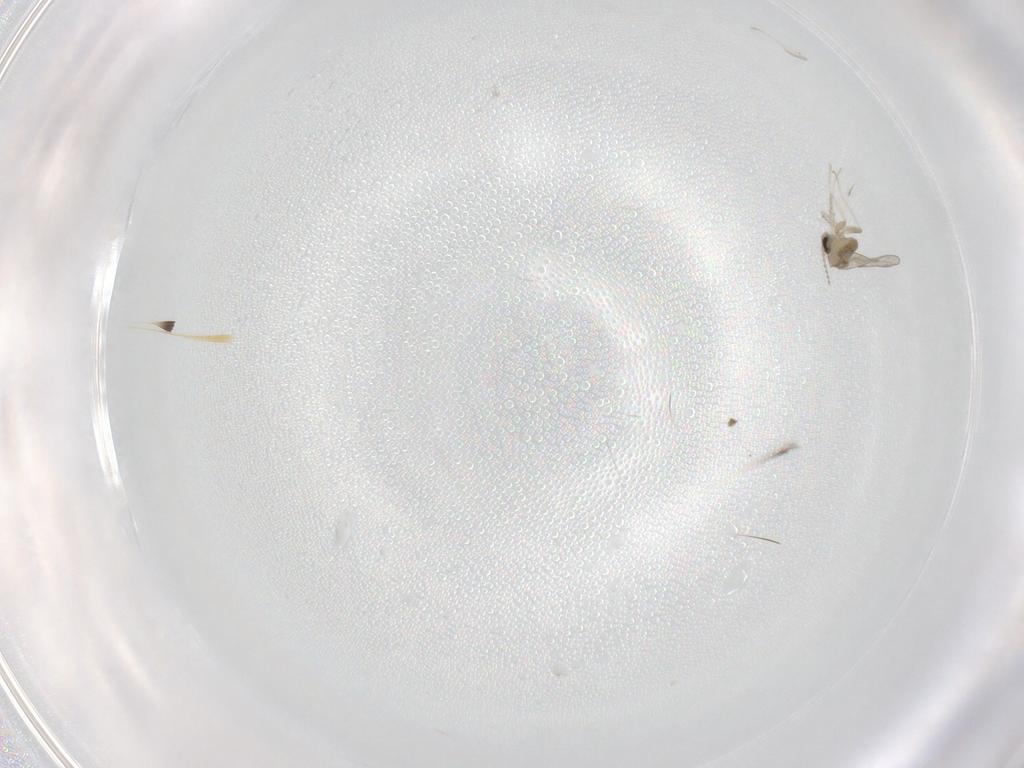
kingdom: Animalia
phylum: Arthropoda
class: Insecta
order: Diptera
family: Cecidomyiidae
